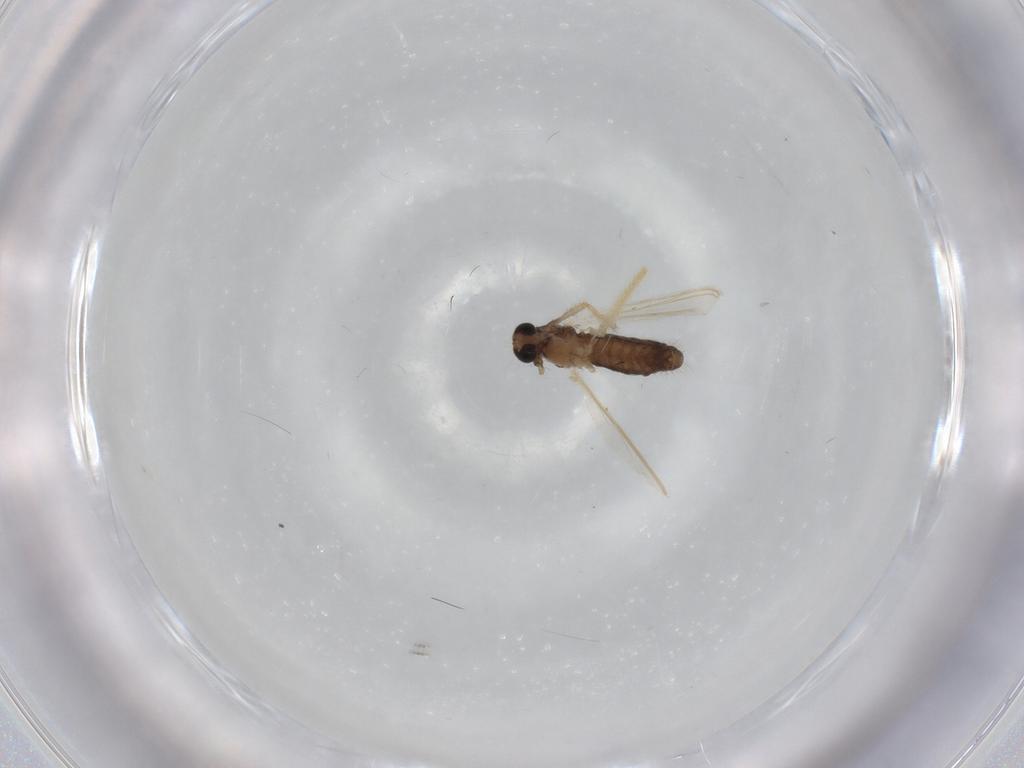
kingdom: Animalia
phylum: Arthropoda
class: Insecta
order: Diptera
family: Chironomidae
